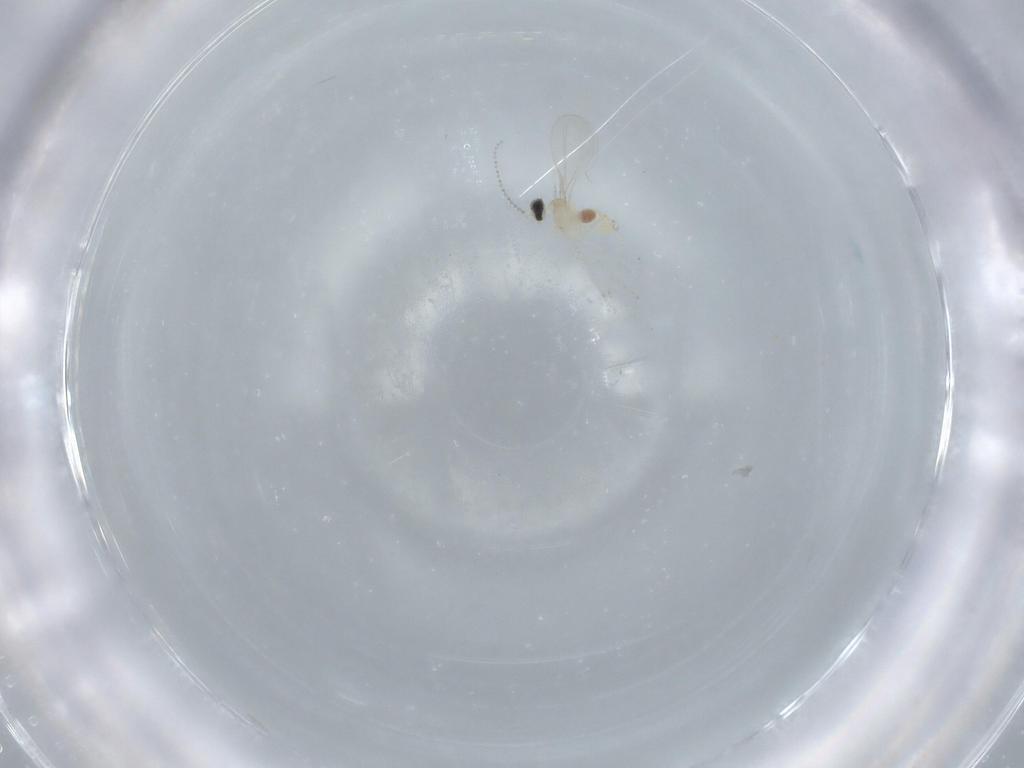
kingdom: Animalia
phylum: Arthropoda
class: Insecta
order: Diptera
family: Cecidomyiidae
